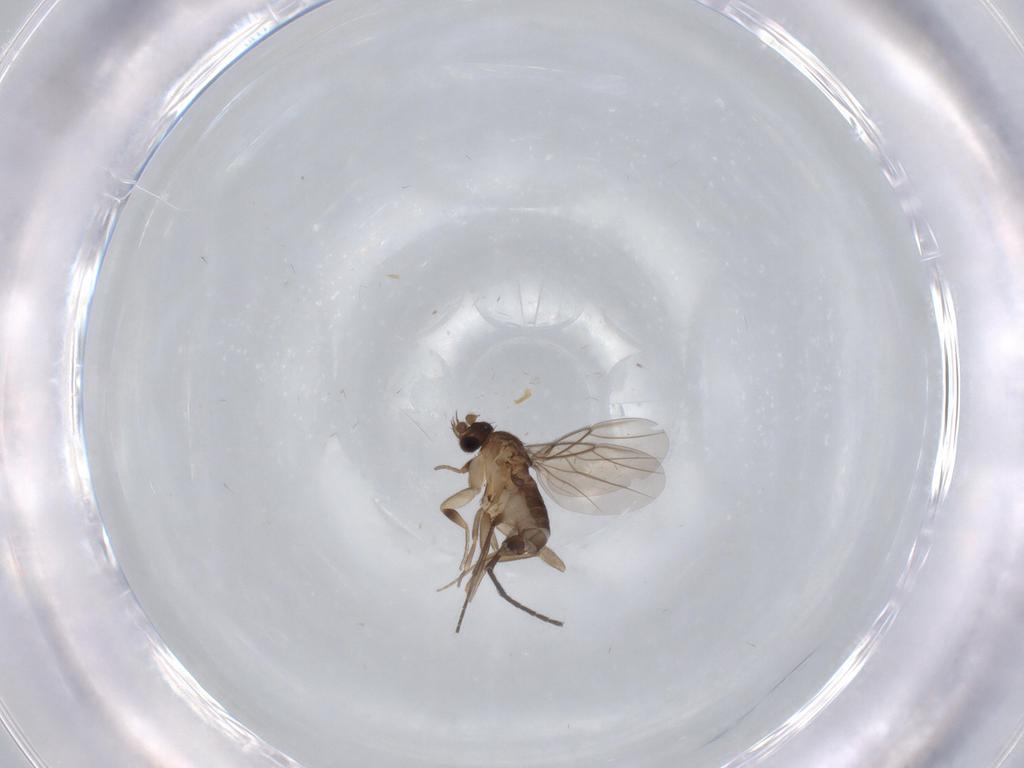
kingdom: Animalia
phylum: Arthropoda
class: Insecta
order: Diptera
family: Phoridae
